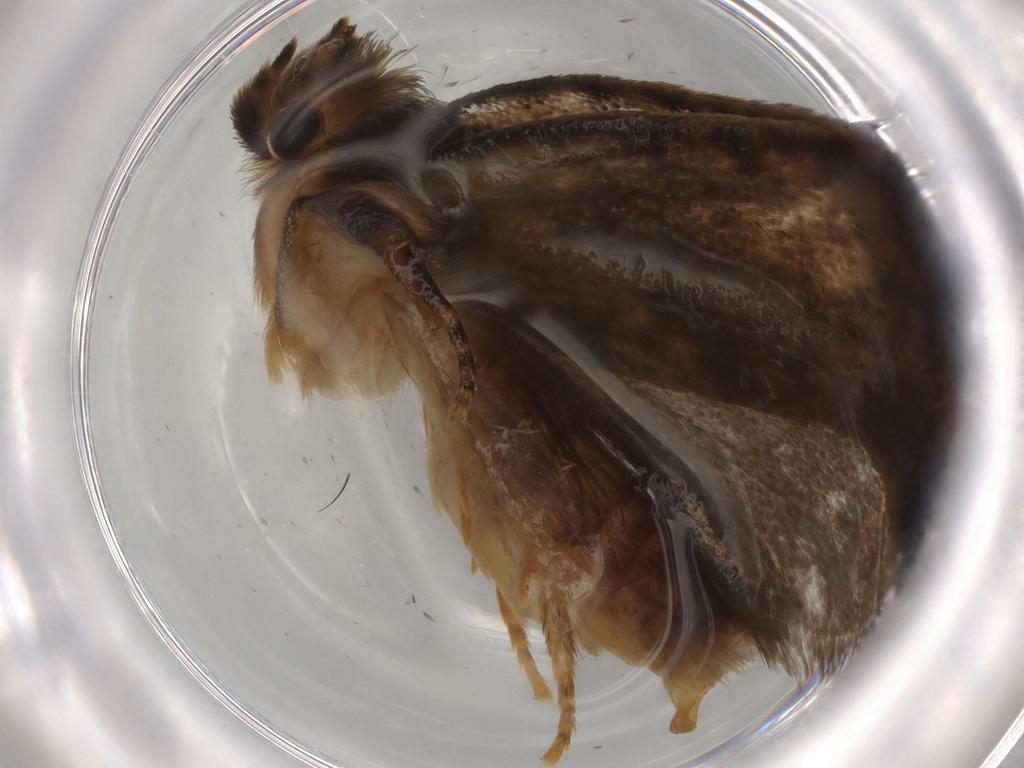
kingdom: Animalia
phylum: Arthropoda
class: Insecta
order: Lepidoptera
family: Tineidae
